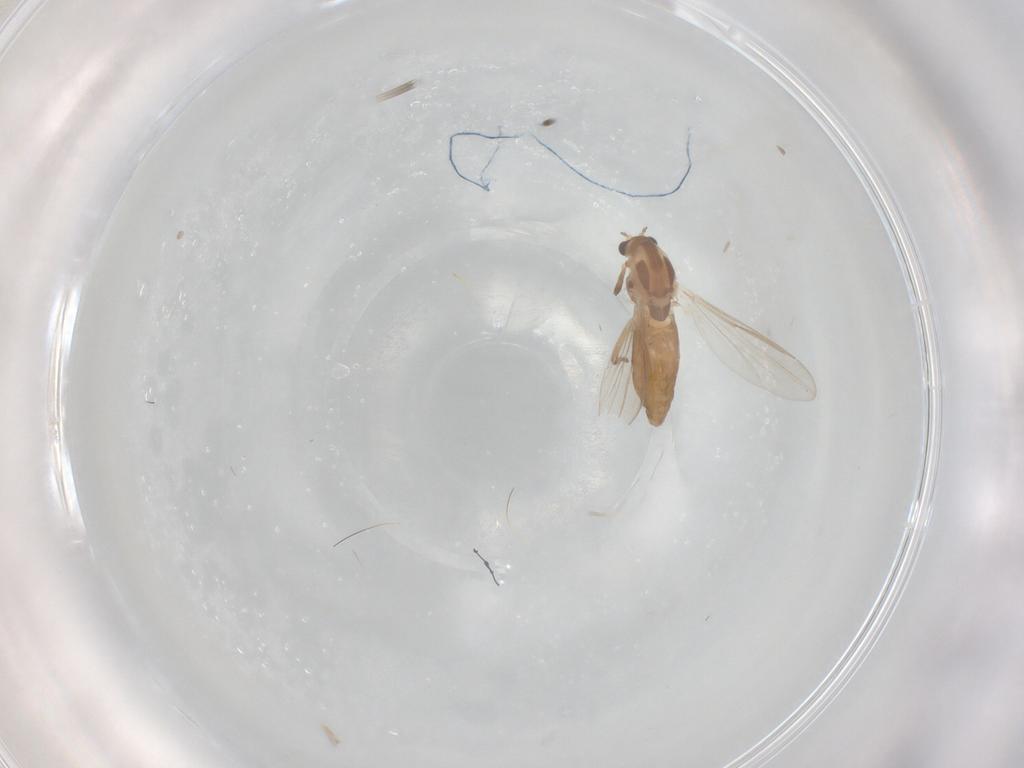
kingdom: Animalia
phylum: Arthropoda
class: Insecta
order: Diptera
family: Chironomidae
